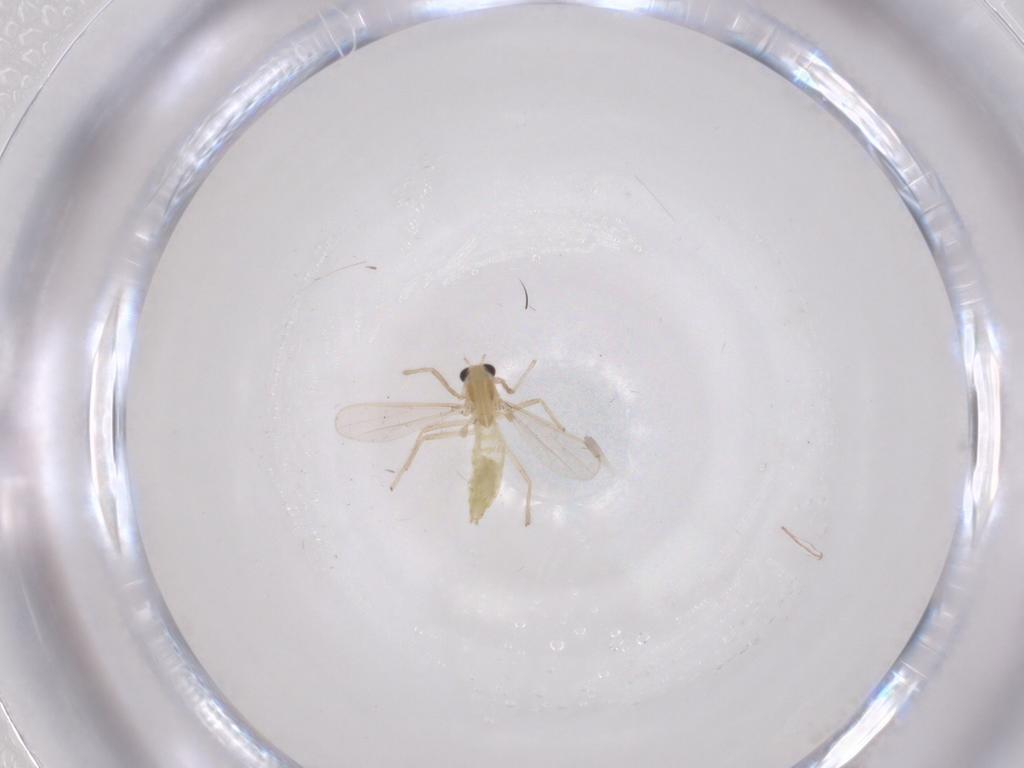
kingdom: Animalia
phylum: Arthropoda
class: Insecta
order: Diptera
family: Chironomidae
